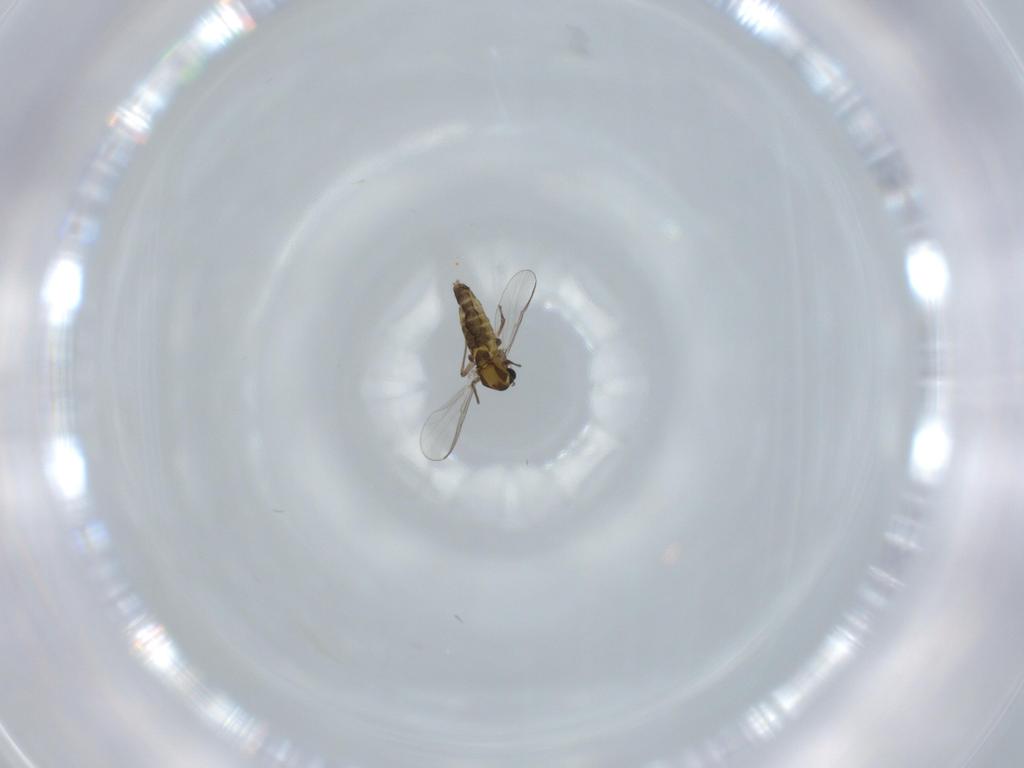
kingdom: Animalia
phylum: Arthropoda
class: Insecta
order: Diptera
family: Chironomidae
